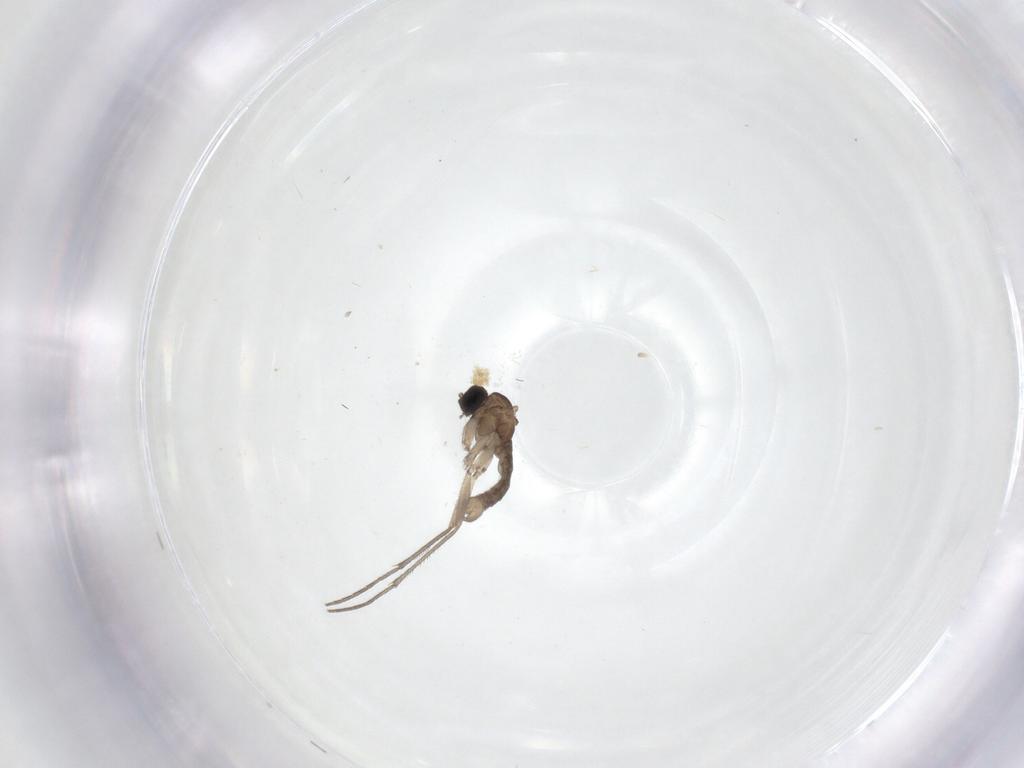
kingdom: Animalia
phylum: Arthropoda
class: Insecta
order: Diptera
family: Sciaridae
